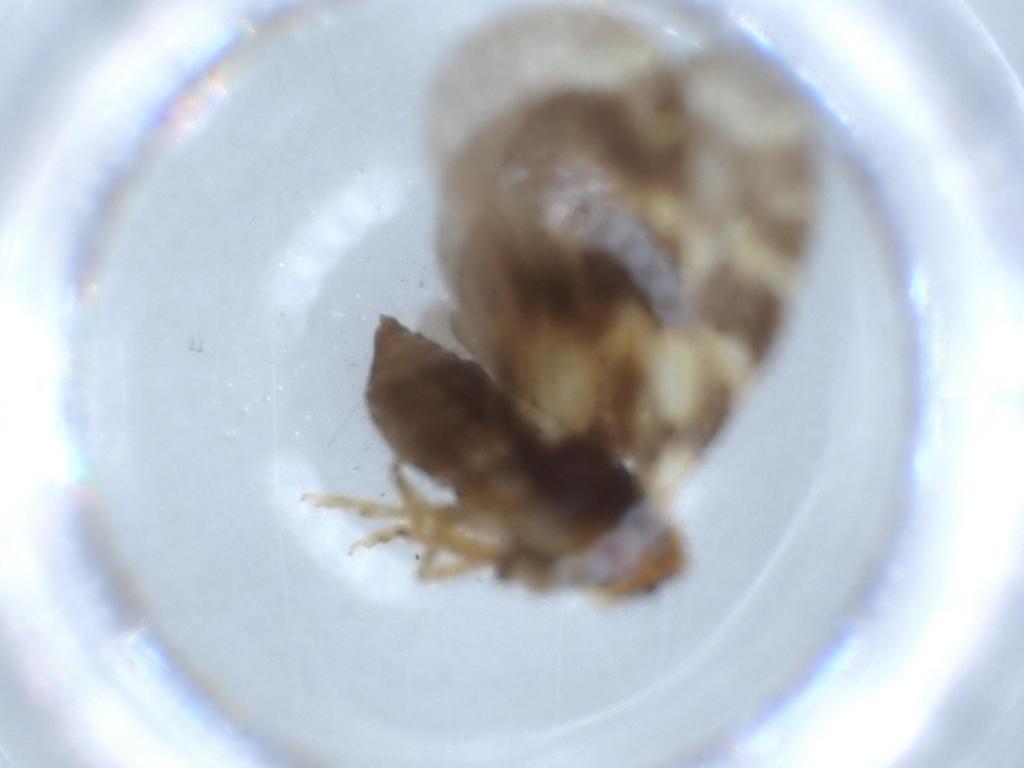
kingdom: Animalia
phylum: Arthropoda
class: Insecta
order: Hemiptera
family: Cixiidae
